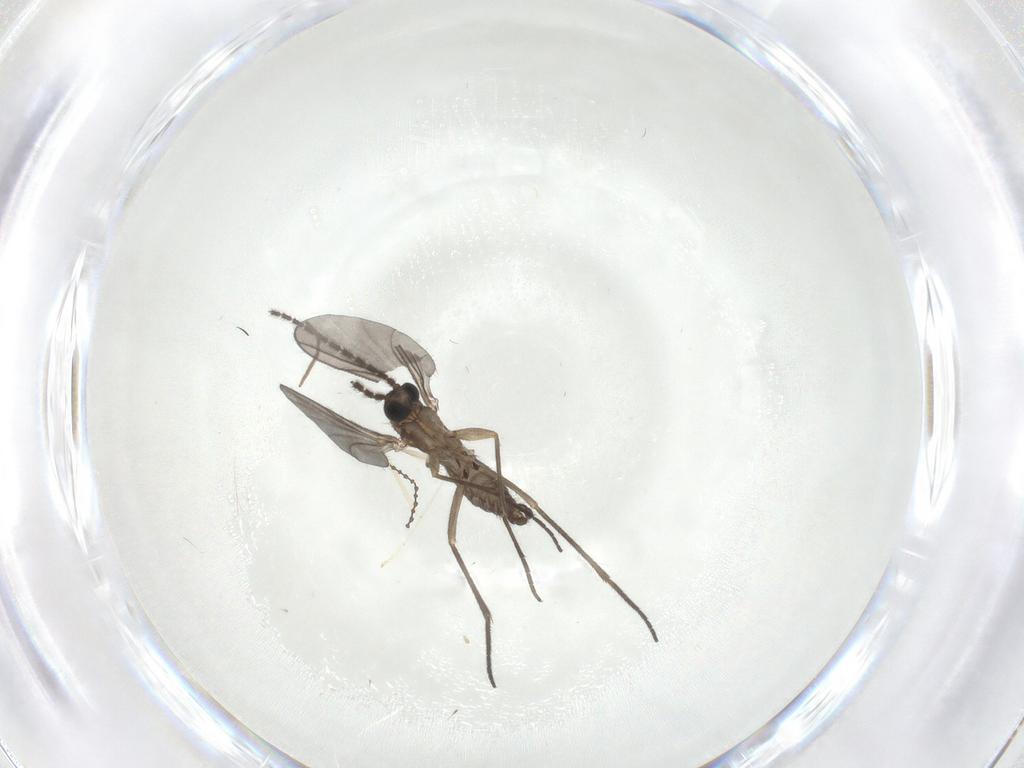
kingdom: Animalia
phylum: Arthropoda
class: Insecta
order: Diptera
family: Sciaridae
